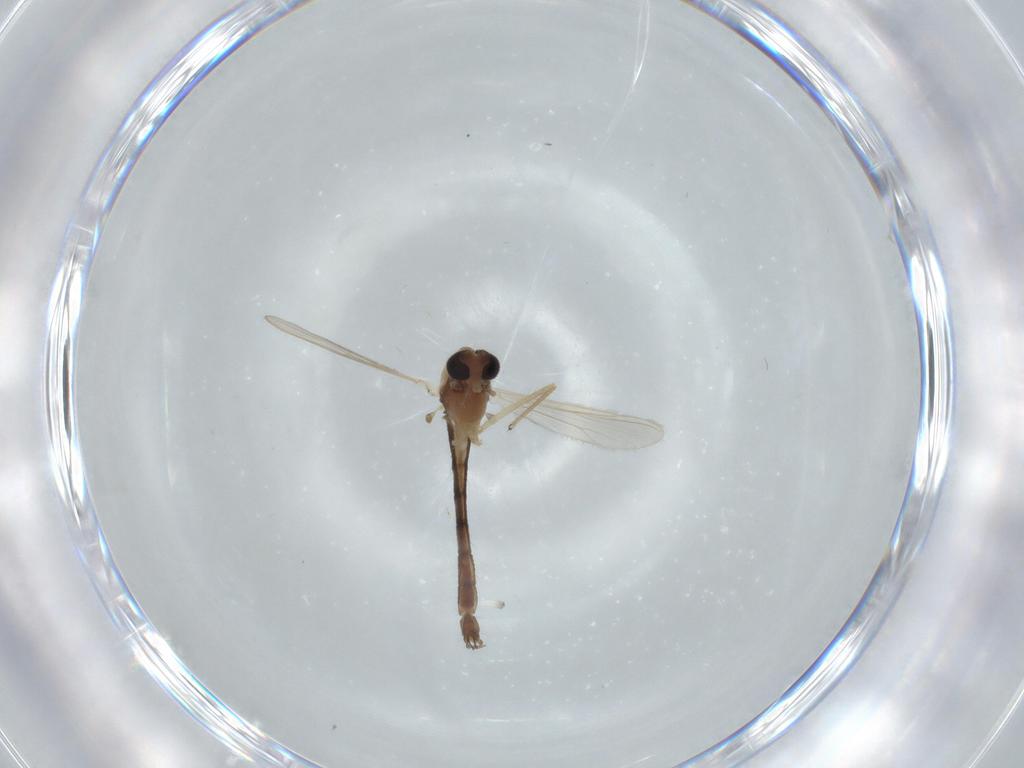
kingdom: Animalia
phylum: Arthropoda
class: Insecta
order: Diptera
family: Chironomidae
